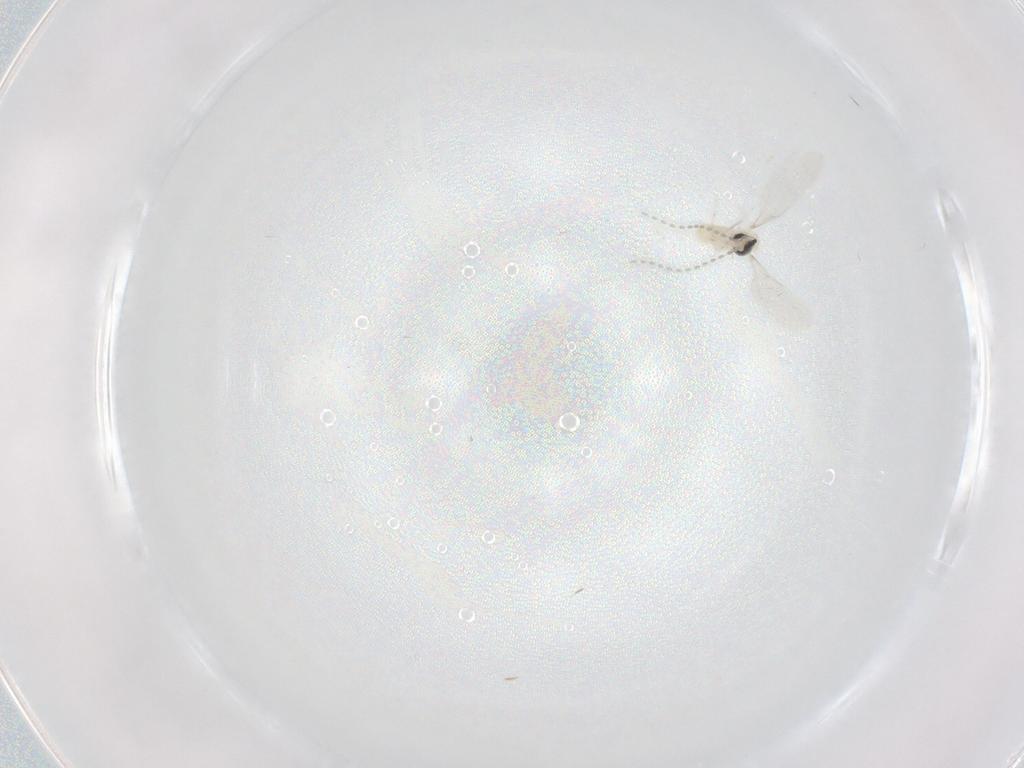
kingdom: Animalia
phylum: Arthropoda
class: Insecta
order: Diptera
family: Cecidomyiidae
